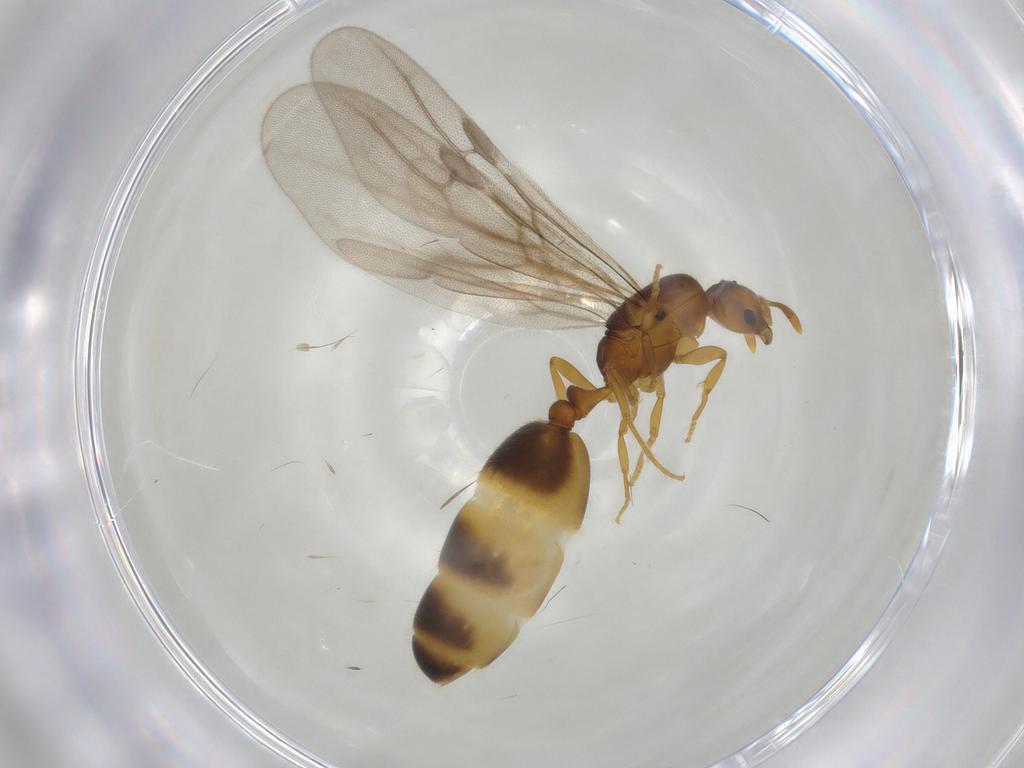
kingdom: Animalia
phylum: Arthropoda
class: Insecta
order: Hymenoptera
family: Formicidae
